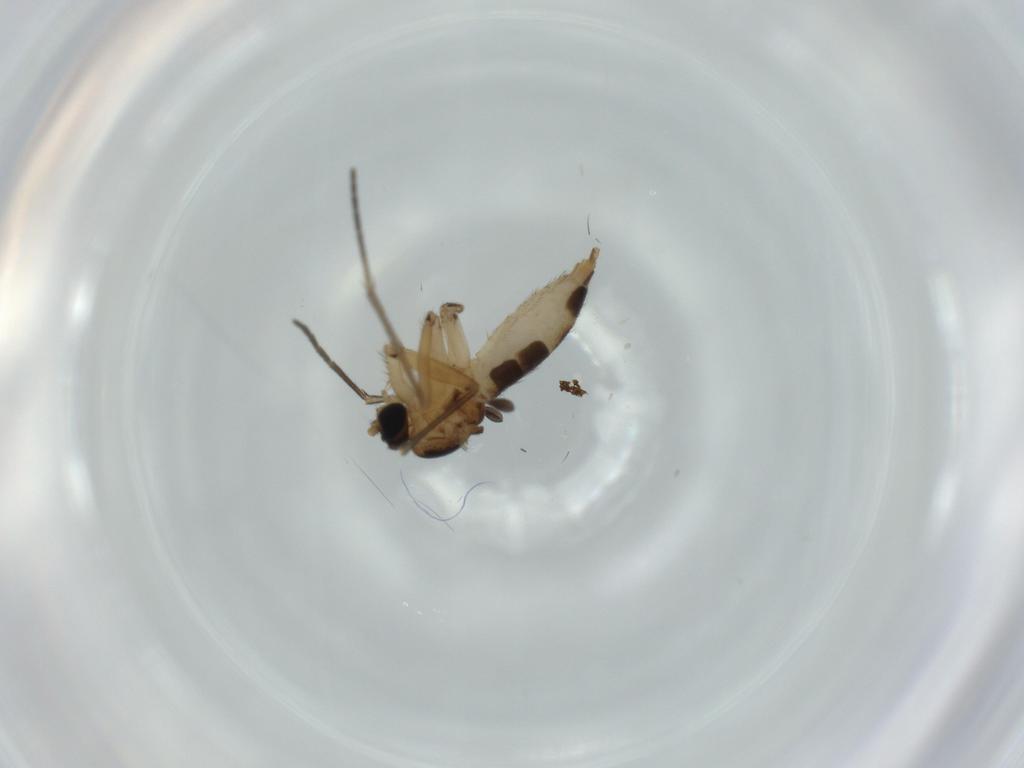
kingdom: Animalia
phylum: Arthropoda
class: Insecta
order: Diptera
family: Sciaridae
